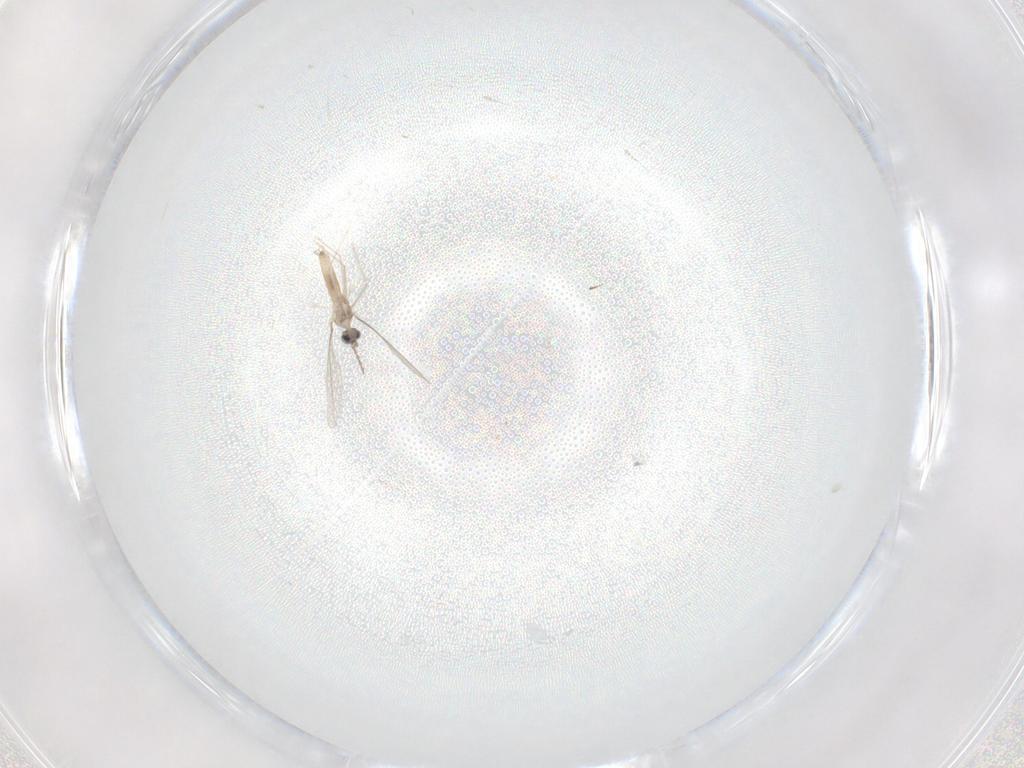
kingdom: Animalia
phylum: Arthropoda
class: Insecta
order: Diptera
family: Cecidomyiidae
